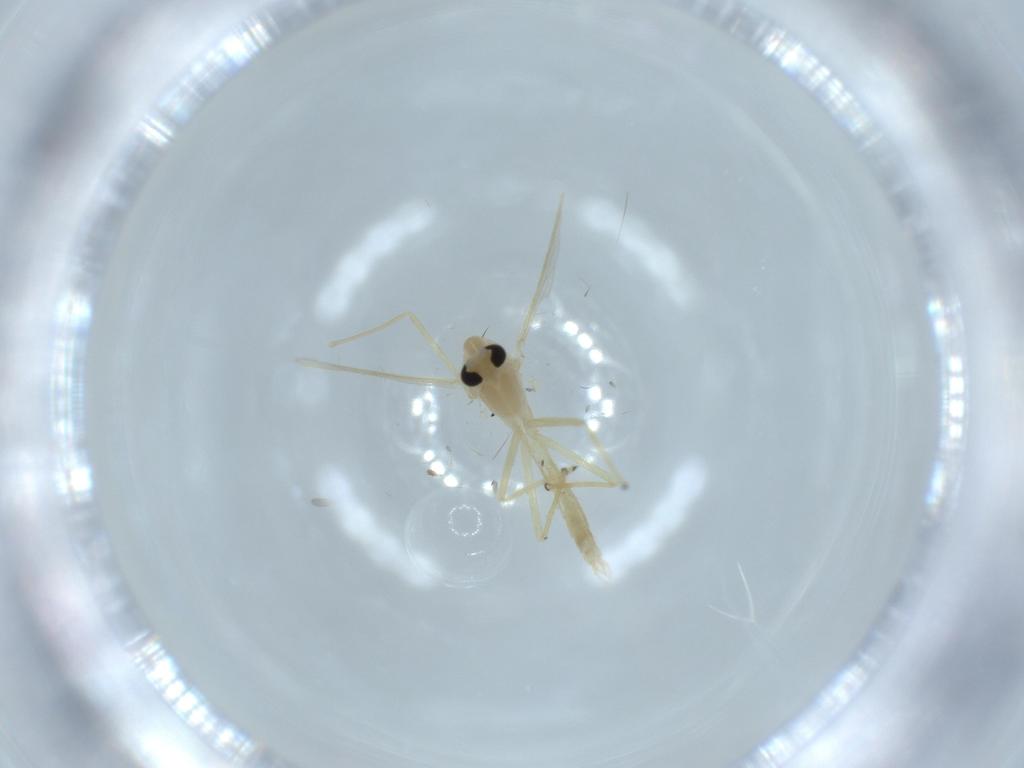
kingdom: Animalia
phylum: Arthropoda
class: Insecta
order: Diptera
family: Chironomidae
